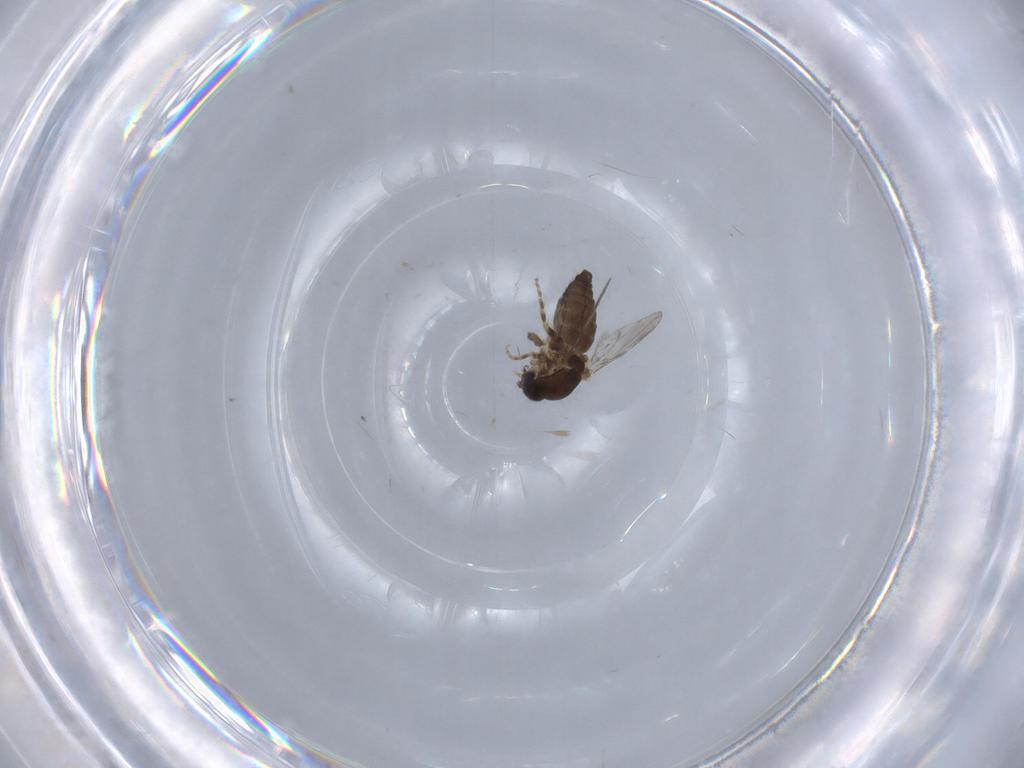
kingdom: Animalia
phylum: Arthropoda
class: Insecta
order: Diptera
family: Ceratopogonidae
